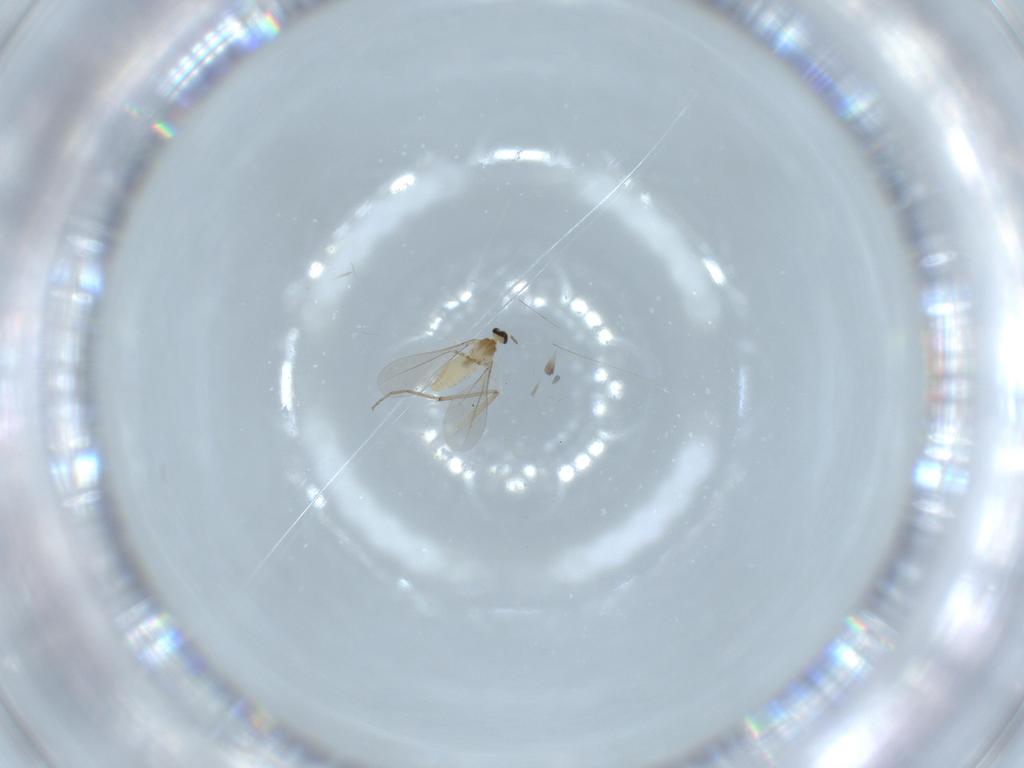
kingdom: Animalia
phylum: Arthropoda
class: Insecta
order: Diptera
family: Cecidomyiidae
